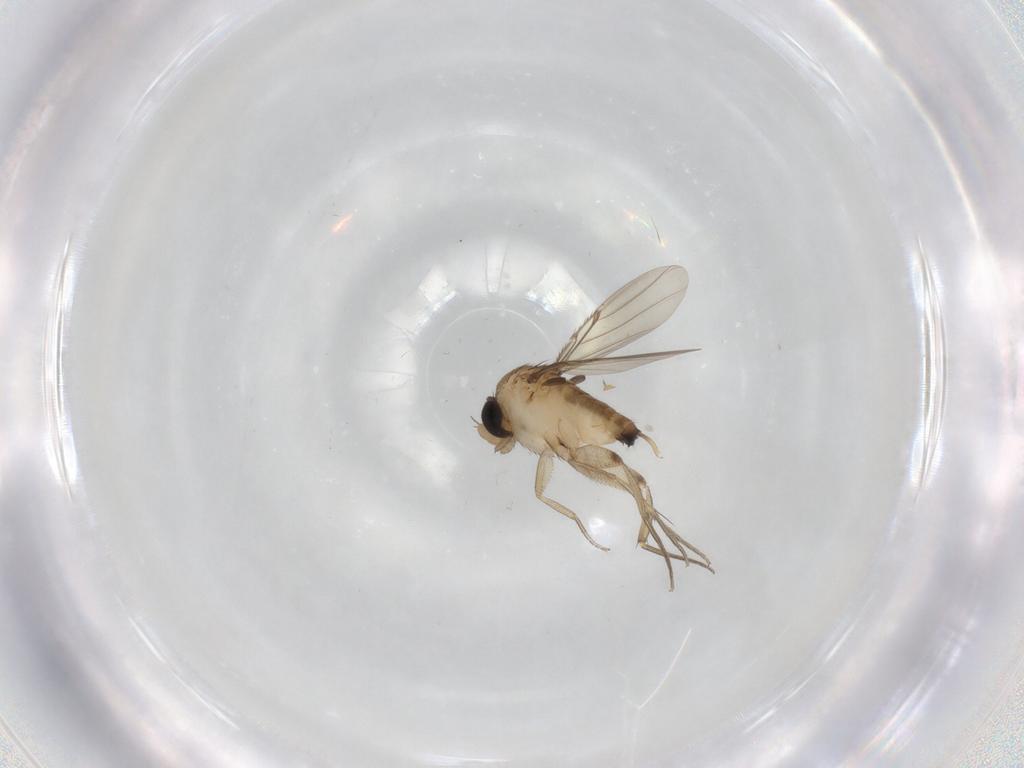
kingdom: Animalia
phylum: Arthropoda
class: Insecta
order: Diptera
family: Phoridae
